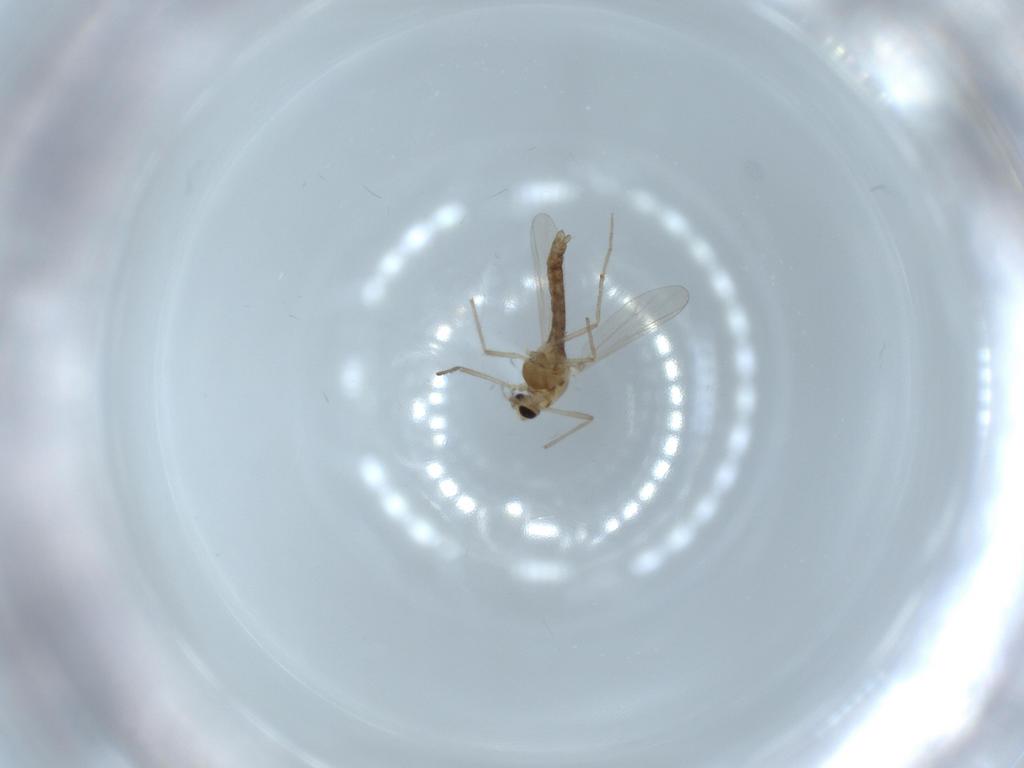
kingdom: Animalia
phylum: Arthropoda
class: Insecta
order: Diptera
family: Chironomidae
